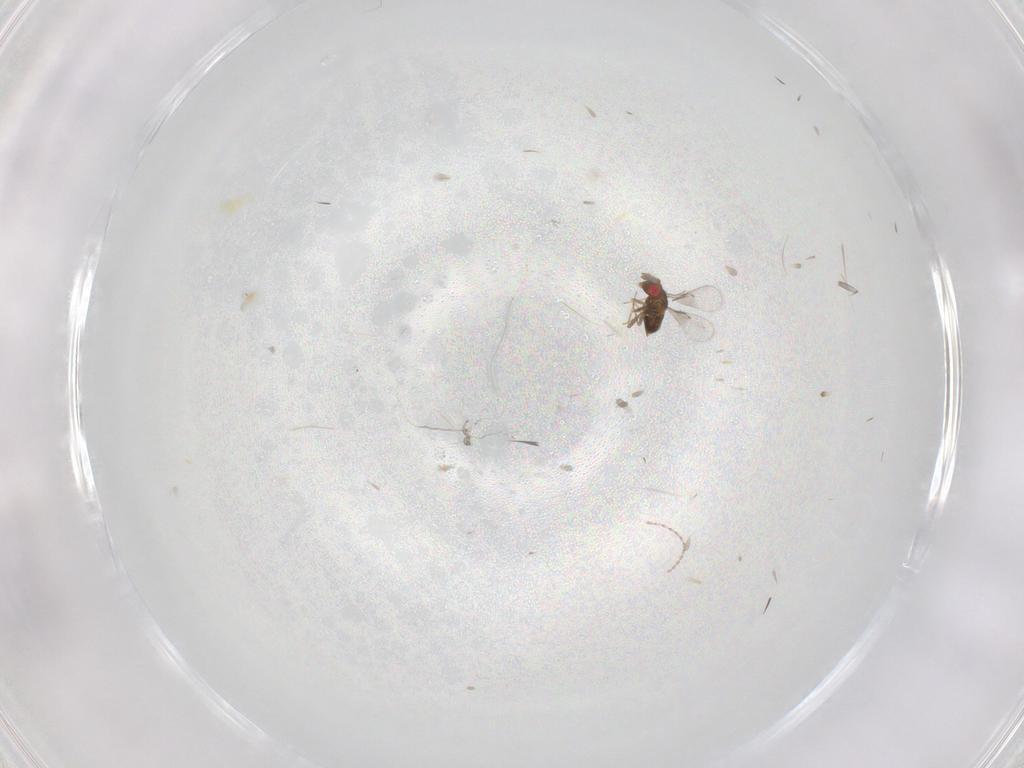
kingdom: Animalia
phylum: Arthropoda
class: Insecta
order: Hymenoptera
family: Trichogrammatidae
